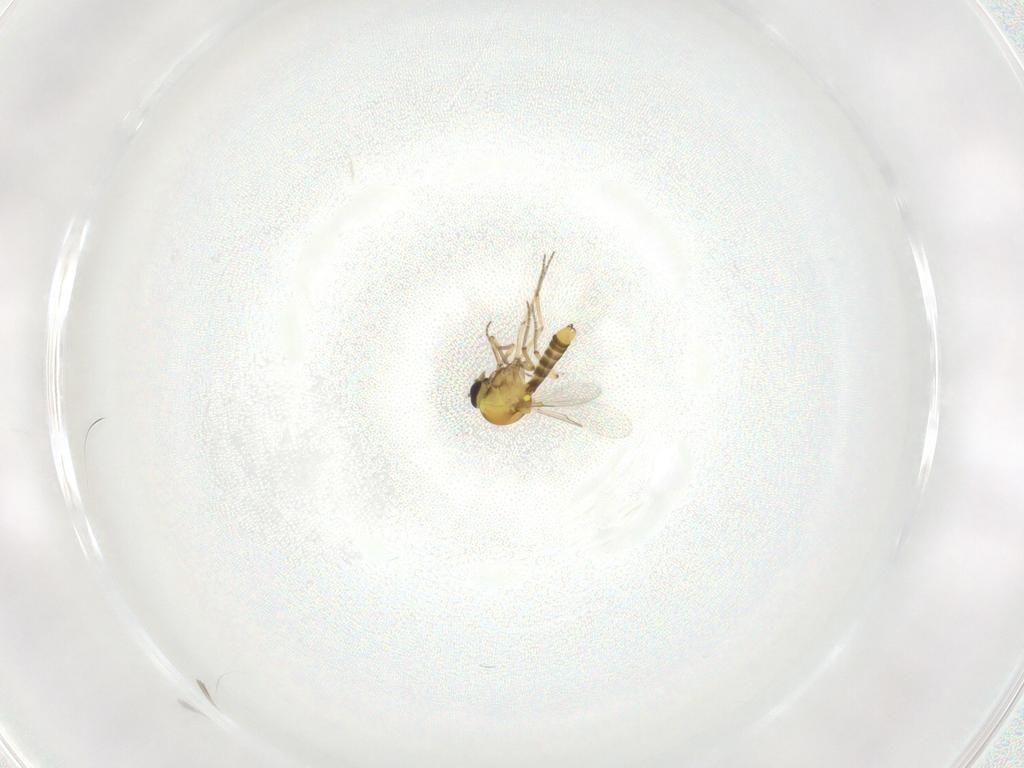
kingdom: Animalia
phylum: Arthropoda
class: Insecta
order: Diptera
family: Ceratopogonidae
